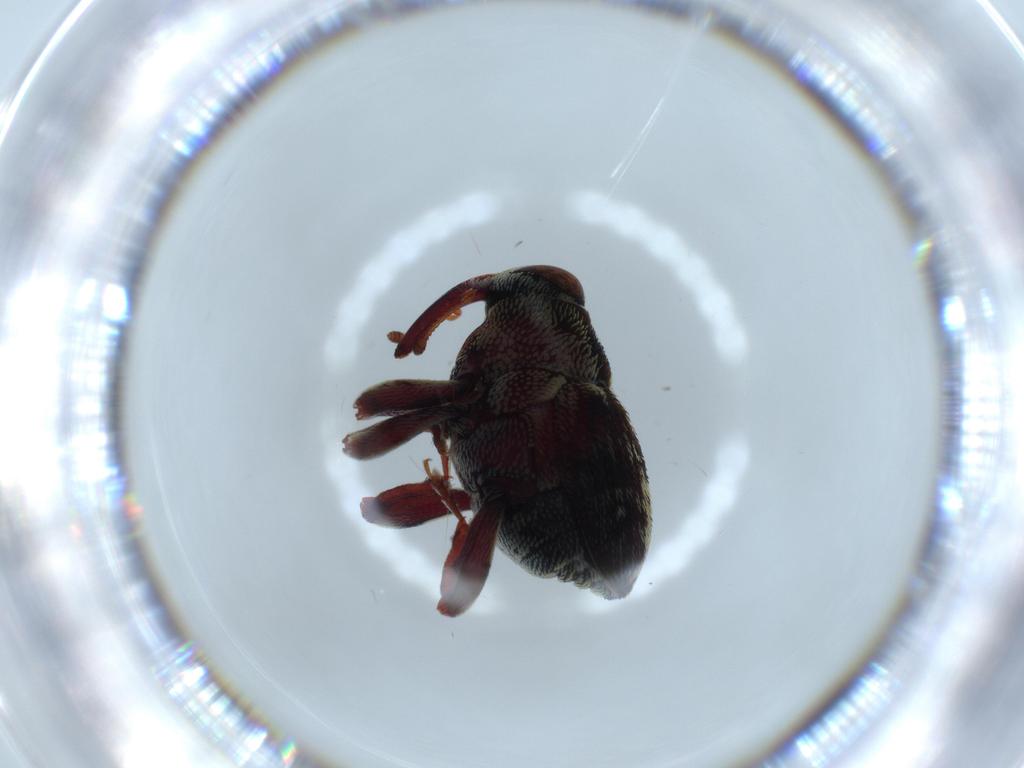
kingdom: Animalia
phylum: Arthropoda
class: Insecta
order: Coleoptera
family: Curculionidae
